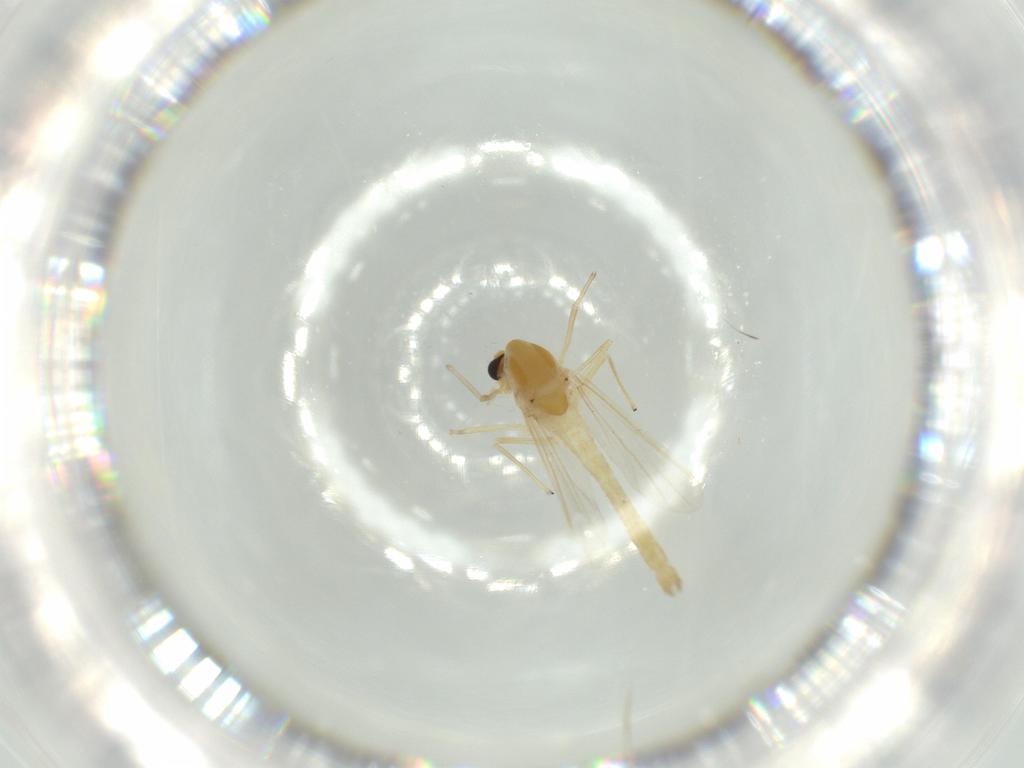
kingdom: Animalia
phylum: Arthropoda
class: Insecta
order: Diptera
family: Chironomidae
